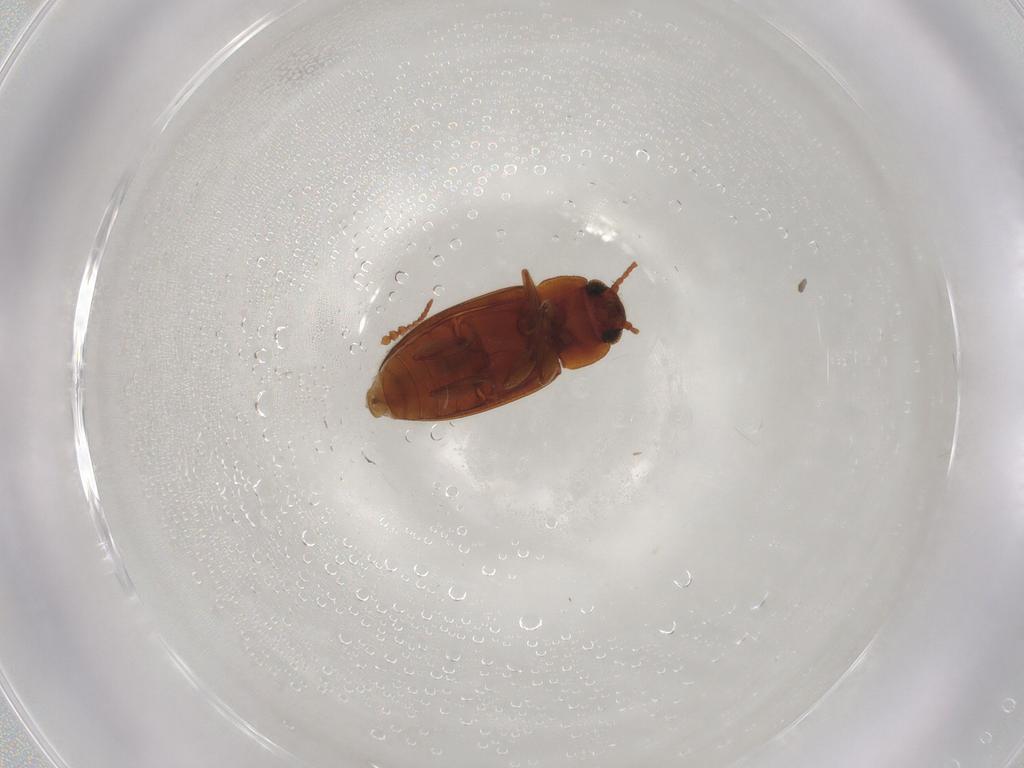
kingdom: Animalia
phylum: Arthropoda
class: Insecta
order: Coleoptera
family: Erotylidae
